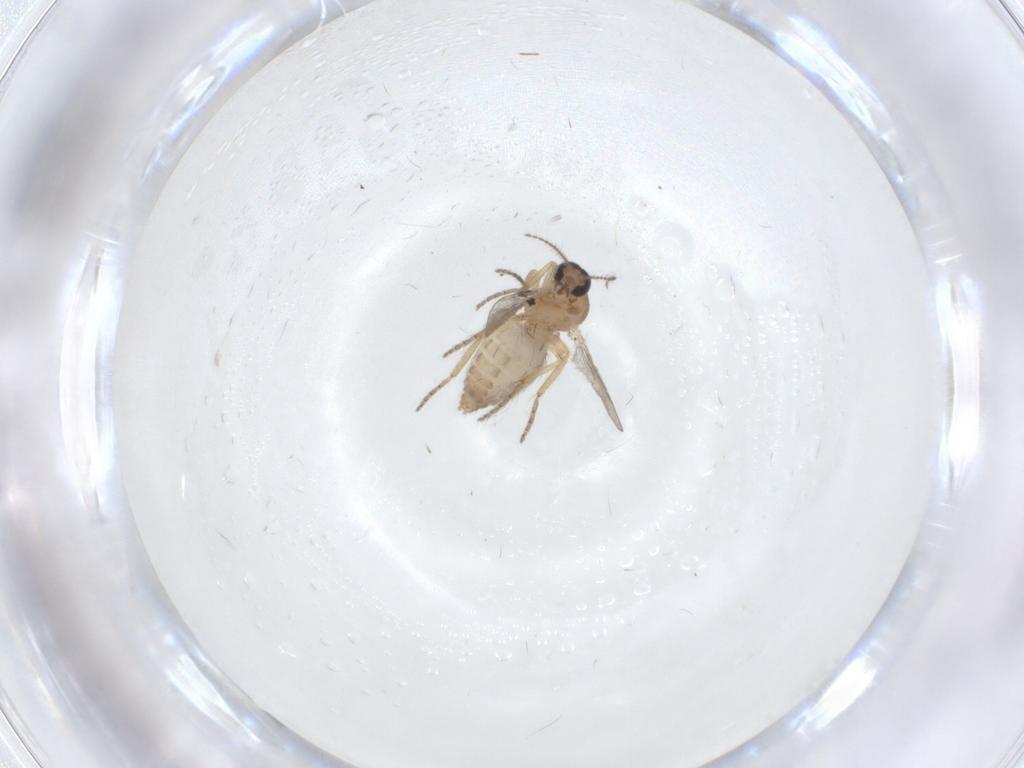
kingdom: Animalia
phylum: Arthropoda
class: Insecta
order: Diptera
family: Ceratopogonidae
